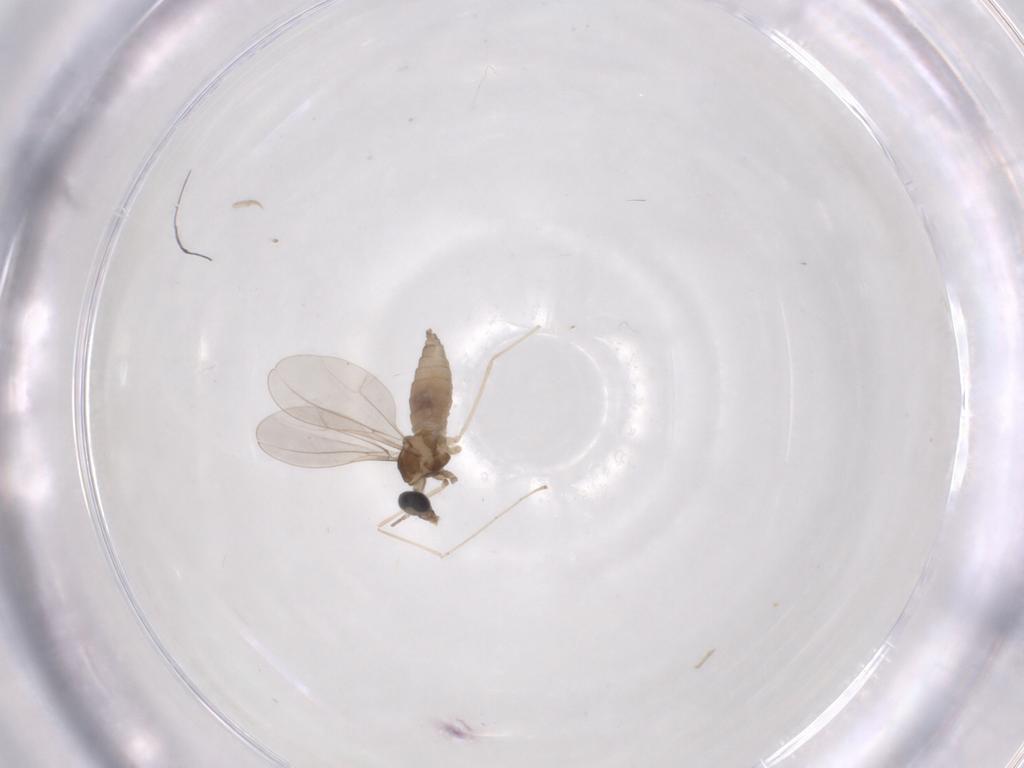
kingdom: Animalia
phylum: Arthropoda
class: Insecta
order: Diptera
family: Cecidomyiidae
